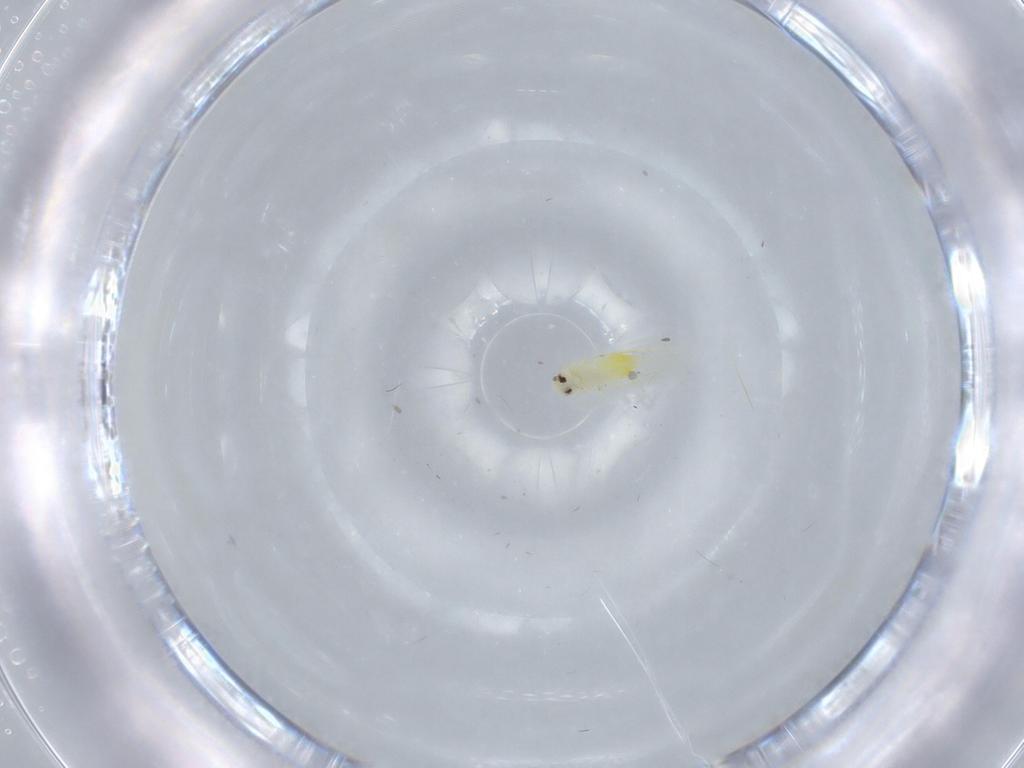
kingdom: Animalia
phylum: Arthropoda
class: Insecta
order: Hemiptera
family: Aleyrodidae
